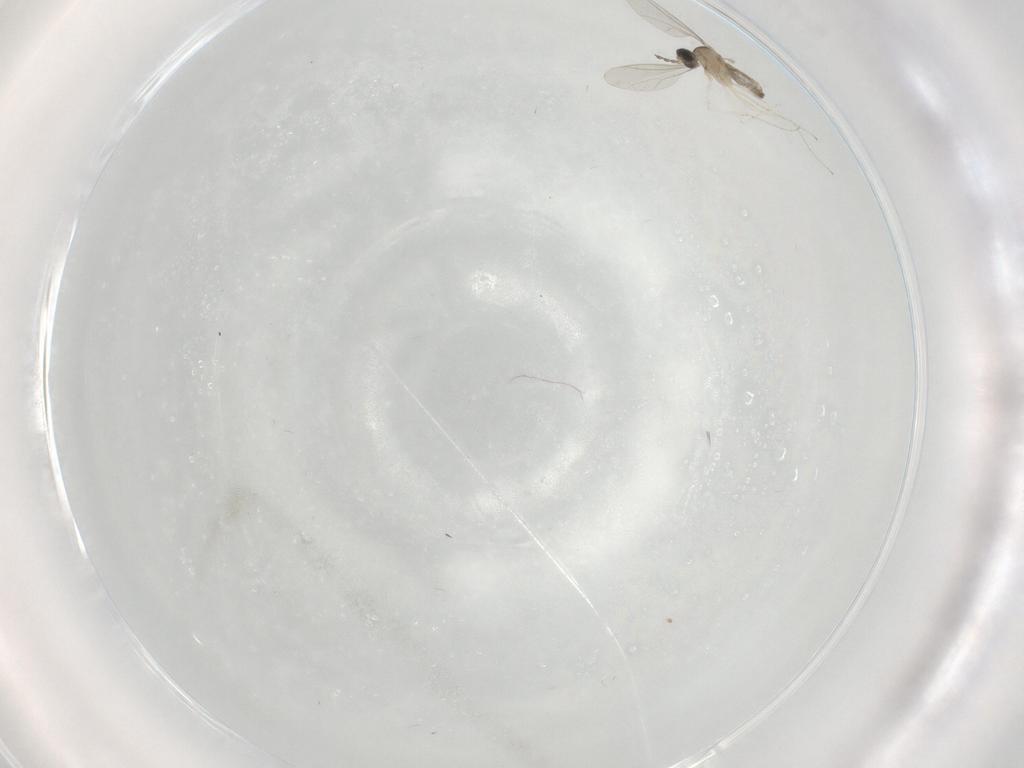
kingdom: Animalia
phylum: Arthropoda
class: Insecta
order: Diptera
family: Cecidomyiidae
